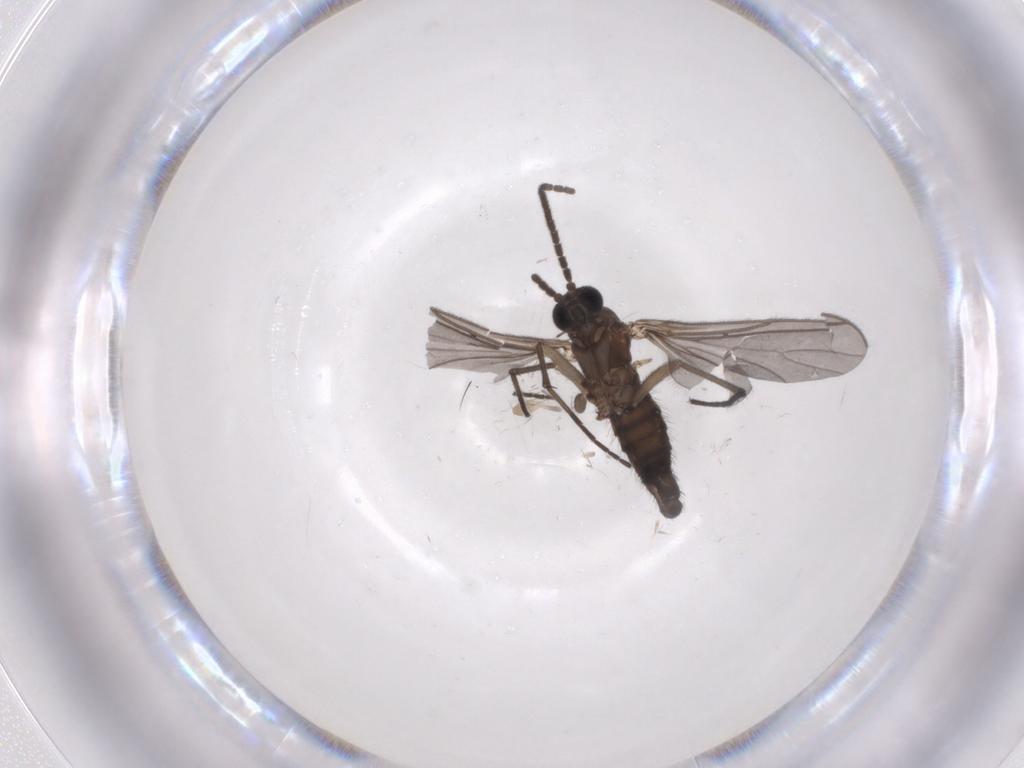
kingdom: Animalia
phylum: Arthropoda
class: Insecta
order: Diptera
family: Sciaridae
